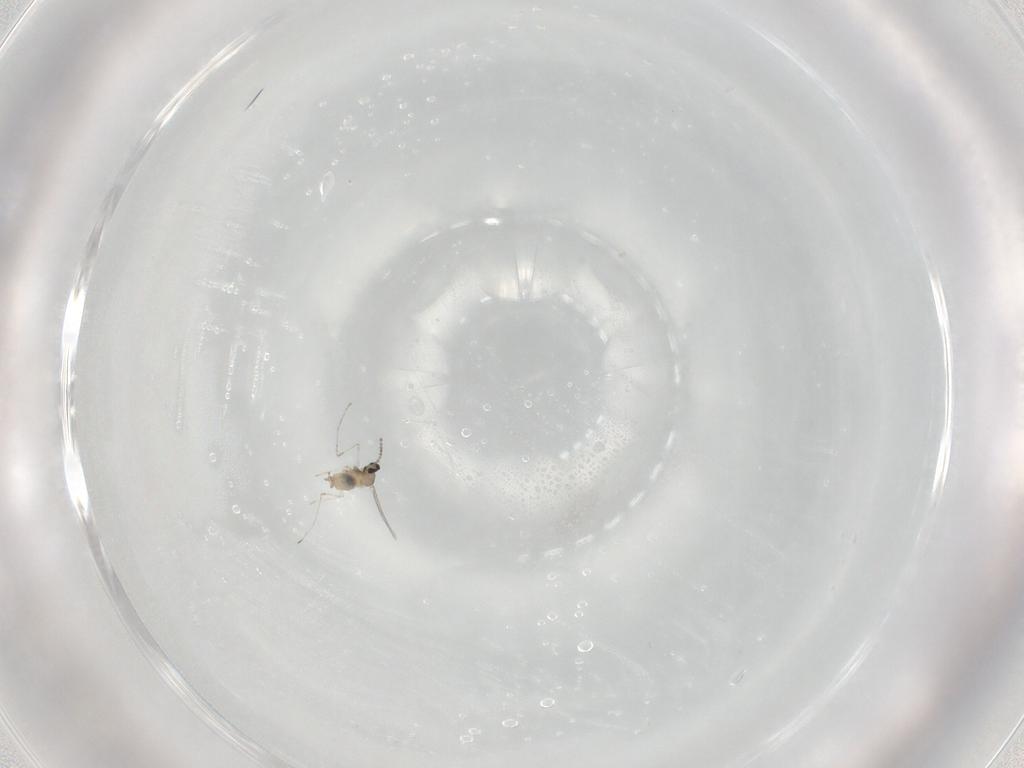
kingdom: Animalia
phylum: Arthropoda
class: Insecta
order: Diptera
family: Cecidomyiidae
